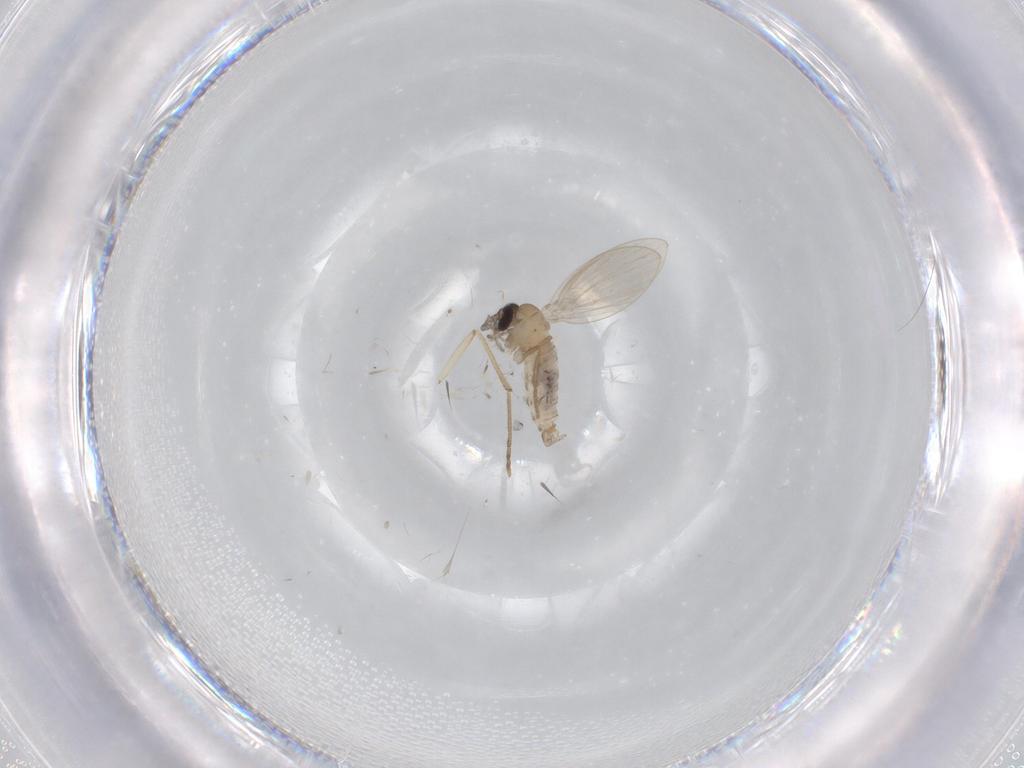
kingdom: Animalia
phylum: Arthropoda
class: Insecta
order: Diptera
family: Psychodidae
